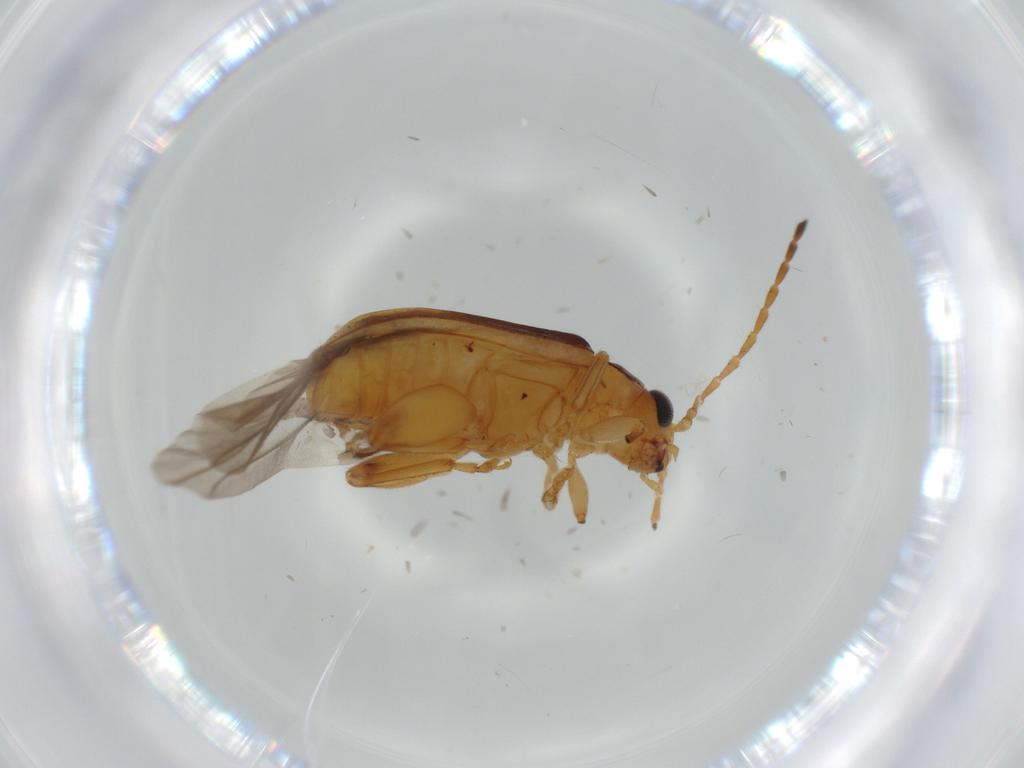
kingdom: Animalia
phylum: Arthropoda
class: Insecta
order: Coleoptera
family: Chrysomelidae
